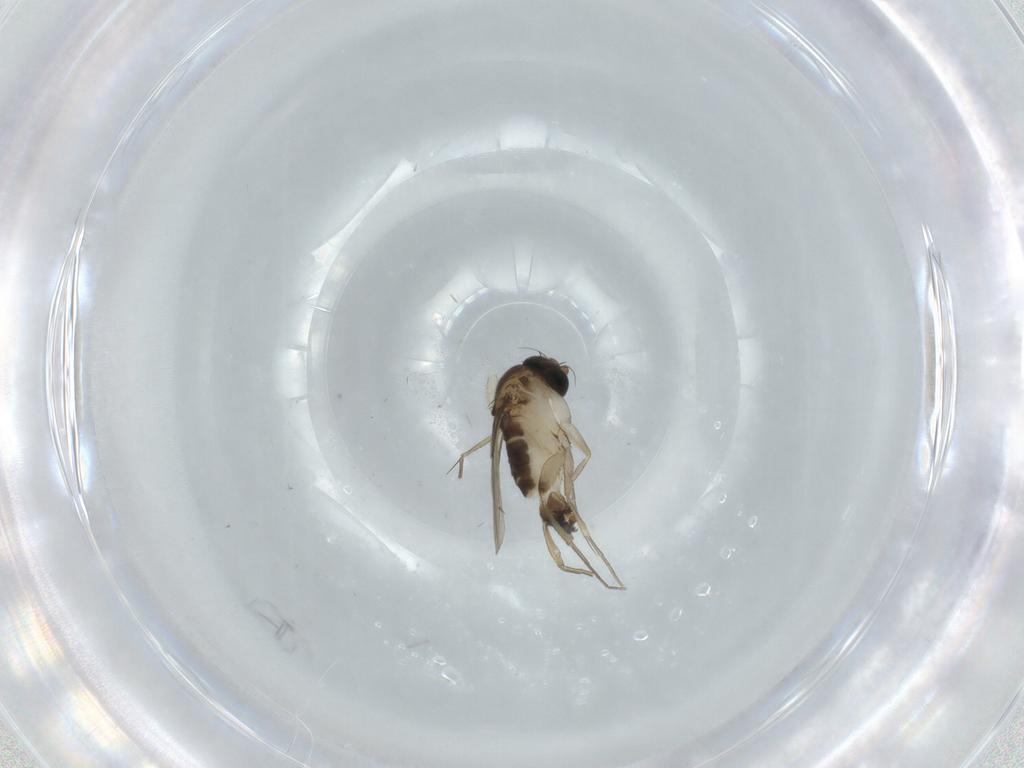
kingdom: Animalia
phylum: Arthropoda
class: Insecta
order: Diptera
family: Phoridae
